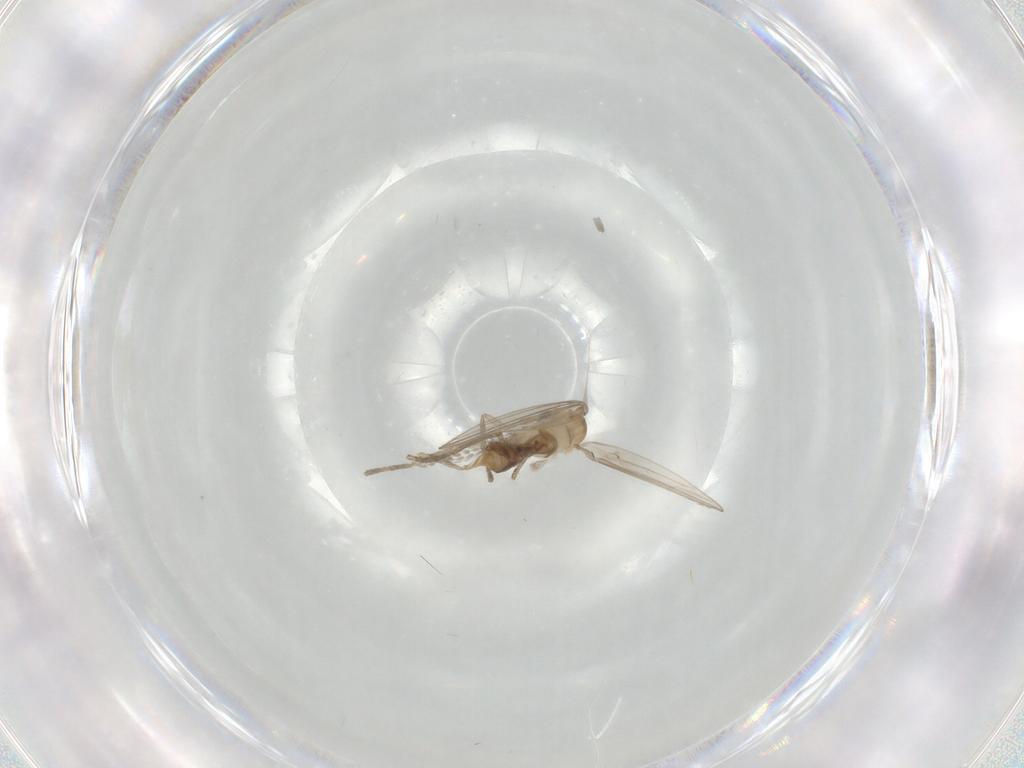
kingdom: Animalia
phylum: Arthropoda
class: Insecta
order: Diptera
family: Psychodidae
